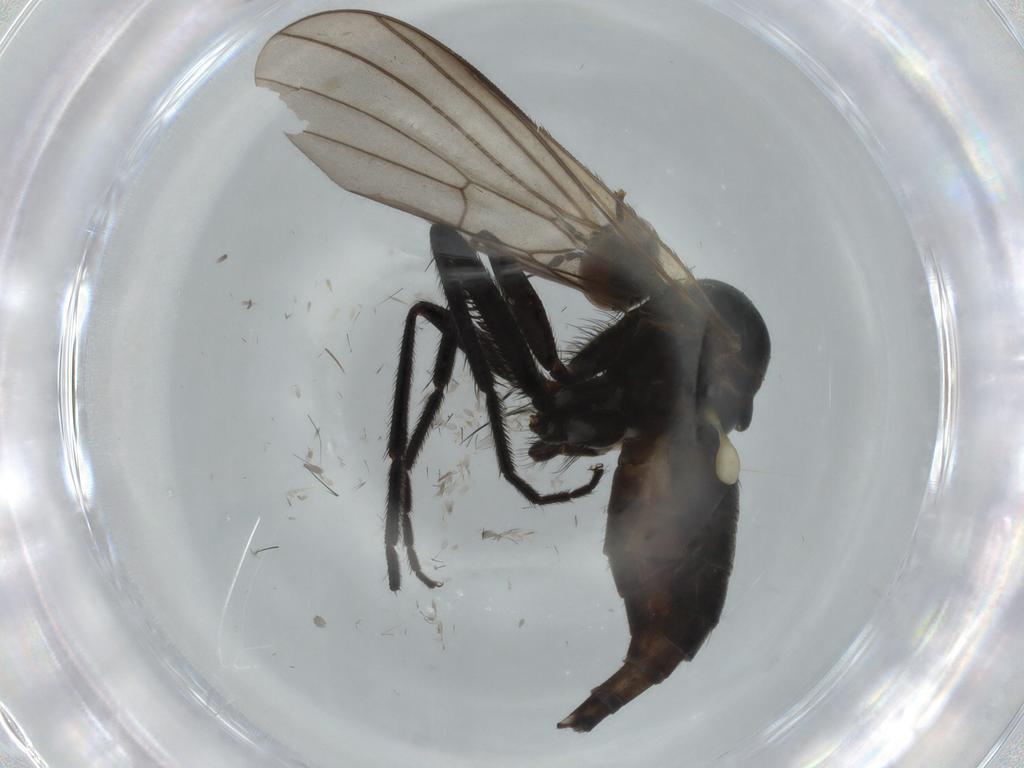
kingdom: Animalia
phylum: Arthropoda
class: Insecta
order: Diptera
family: Empididae
